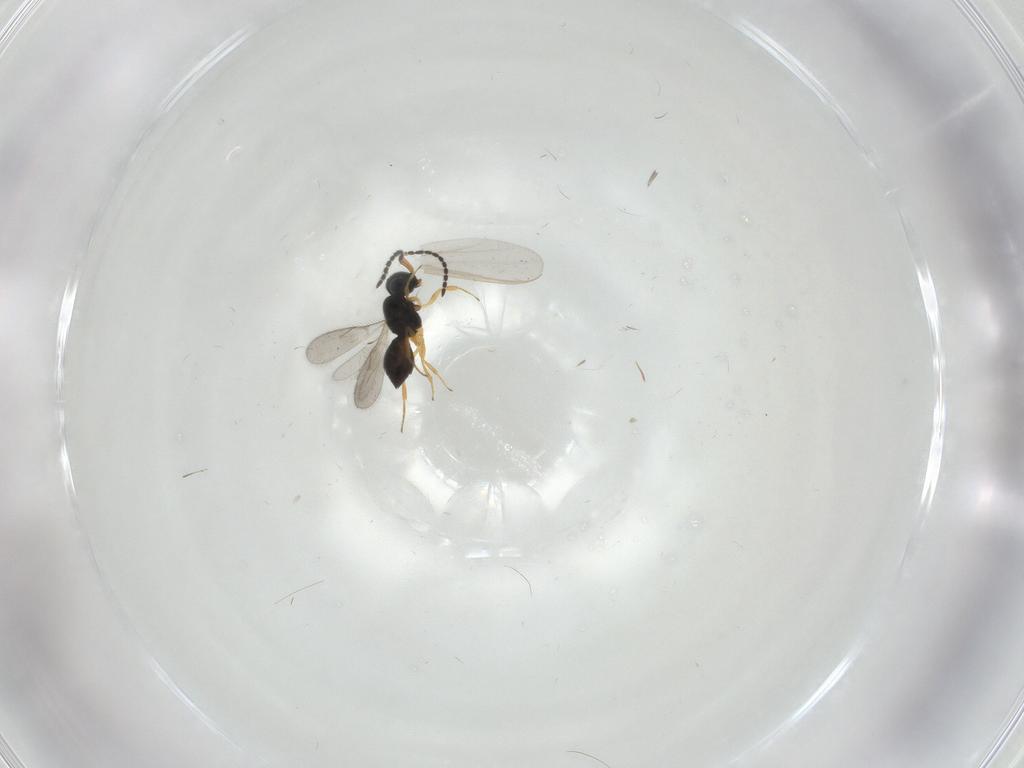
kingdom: Animalia
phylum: Arthropoda
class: Insecta
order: Hymenoptera
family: Scelionidae
